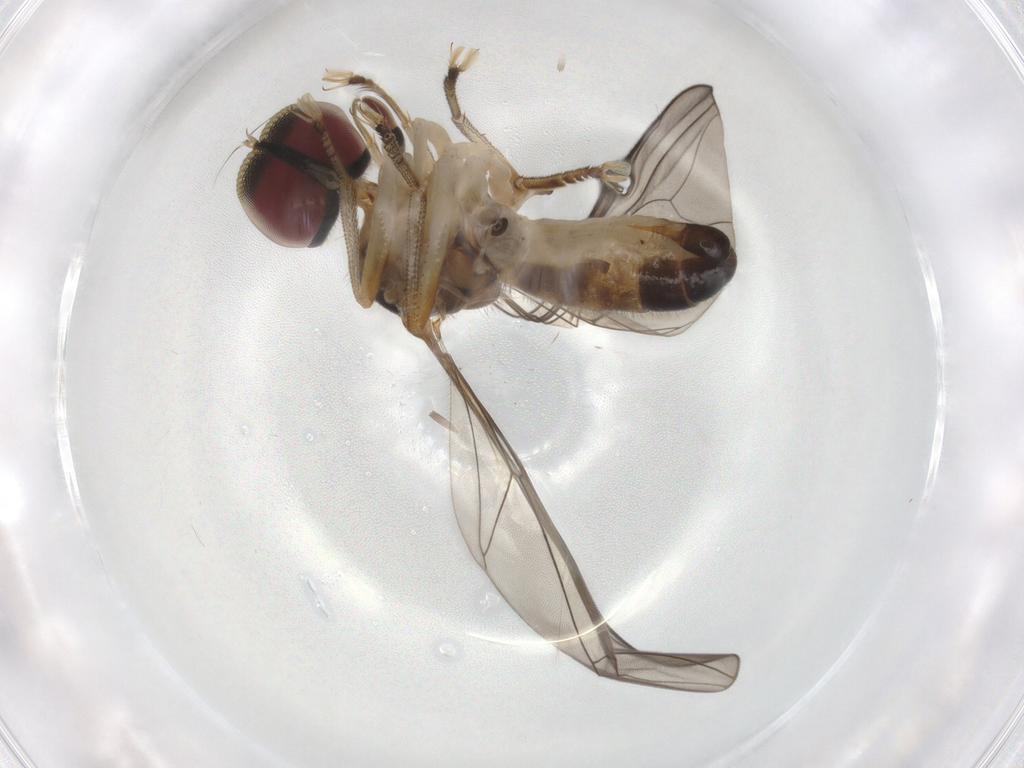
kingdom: Animalia
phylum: Arthropoda
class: Insecta
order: Diptera
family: Hybotidae
